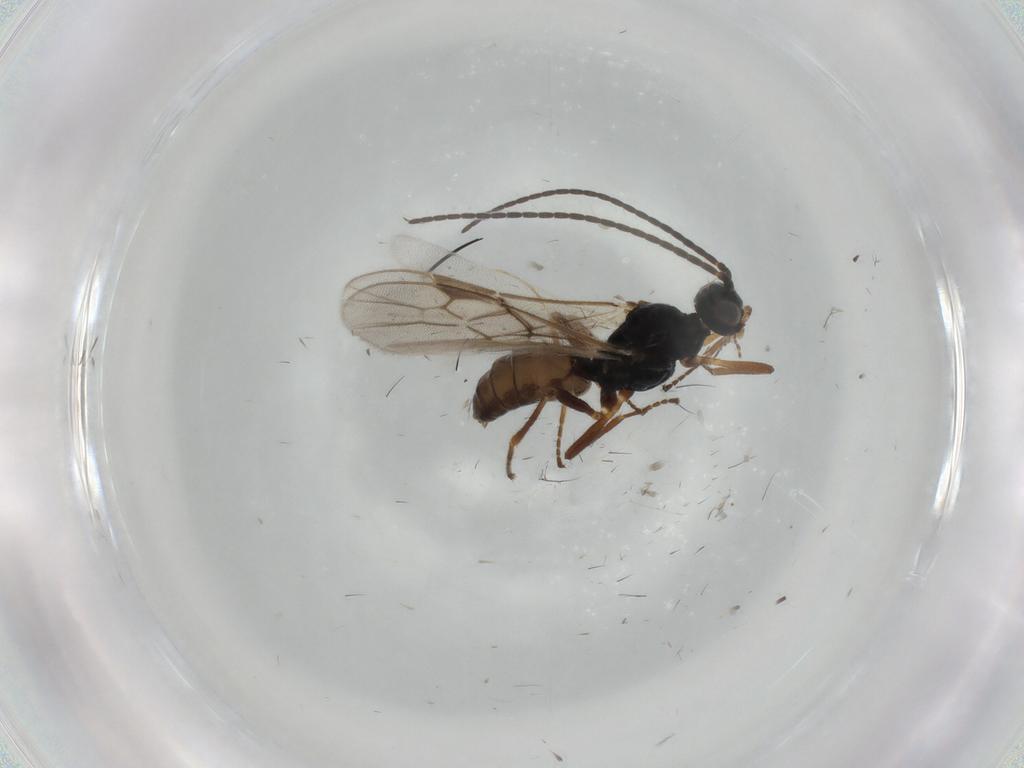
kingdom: Animalia
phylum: Arthropoda
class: Insecta
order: Hymenoptera
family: Braconidae
